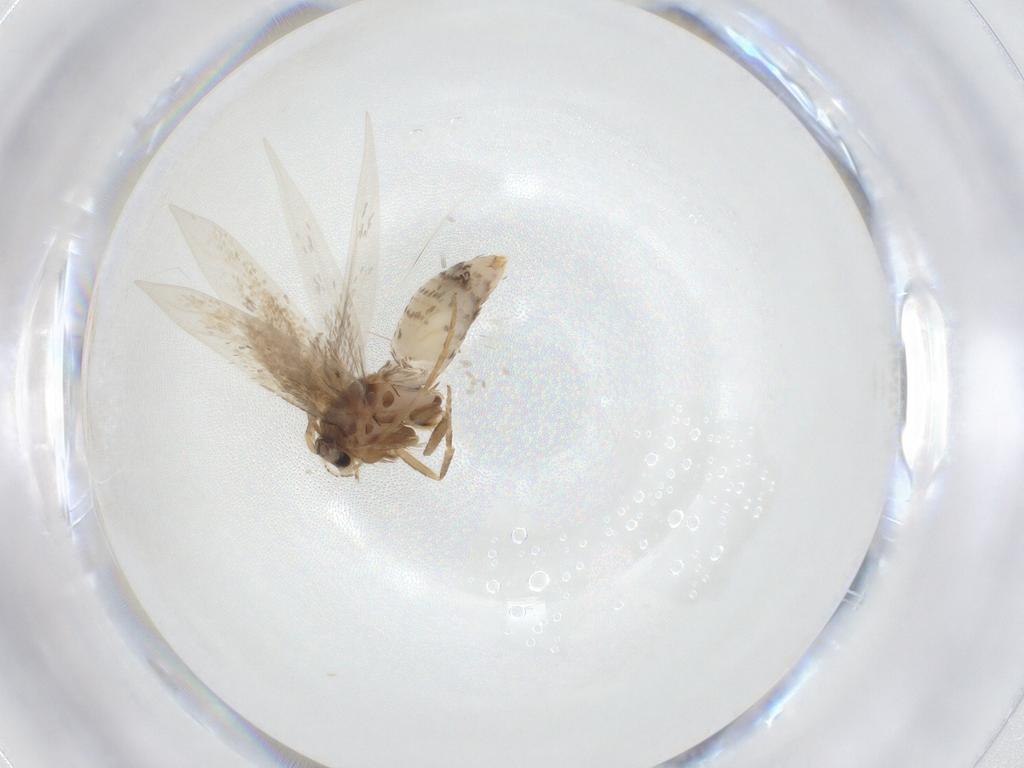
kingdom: Animalia
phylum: Arthropoda
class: Insecta
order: Lepidoptera
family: Nepticulidae
